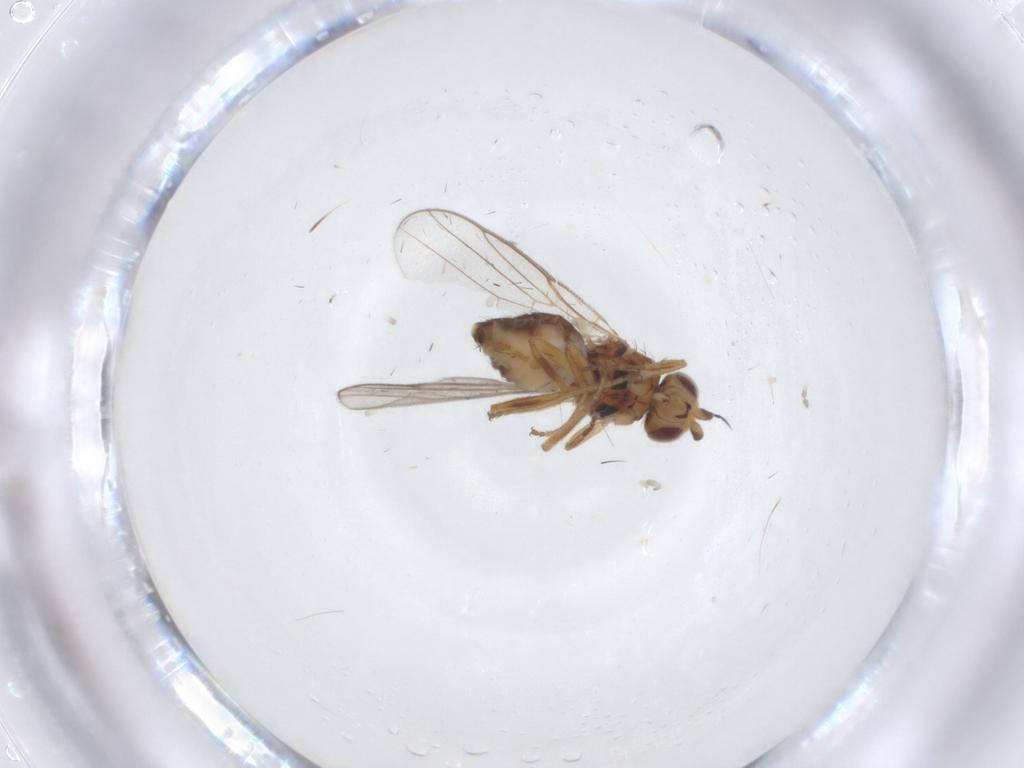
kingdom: Animalia
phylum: Arthropoda
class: Insecta
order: Diptera
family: Chloropidae
